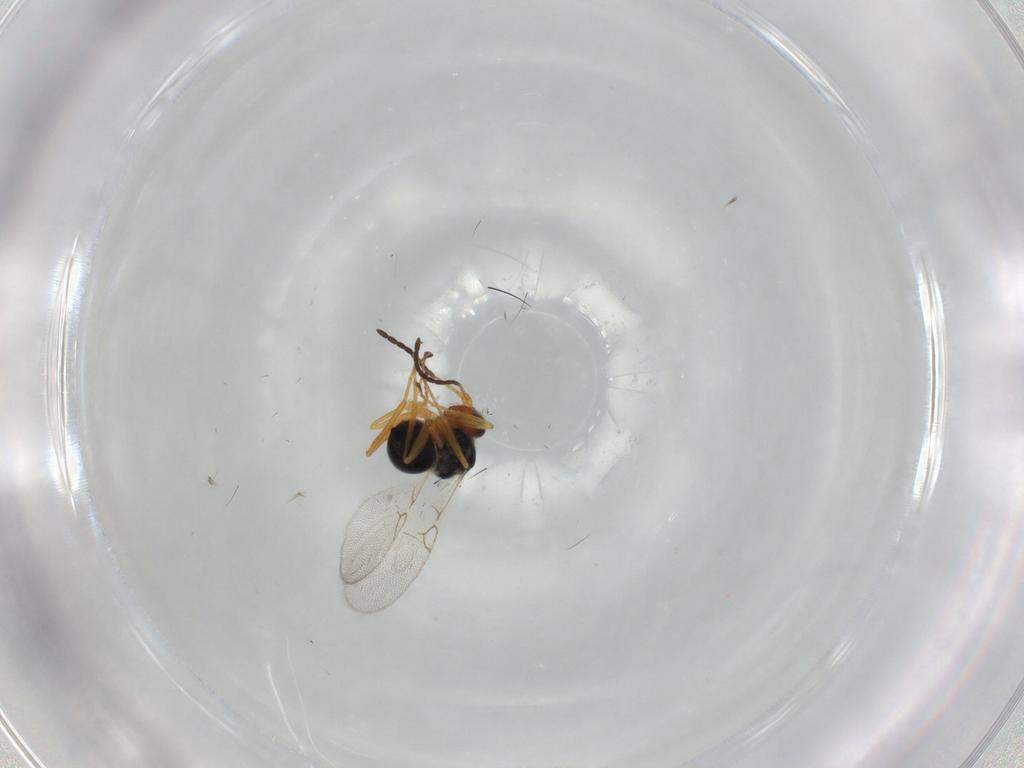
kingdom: Animalia
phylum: Arthropoda
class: Insecta
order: Hymenoptera
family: Figitidae
